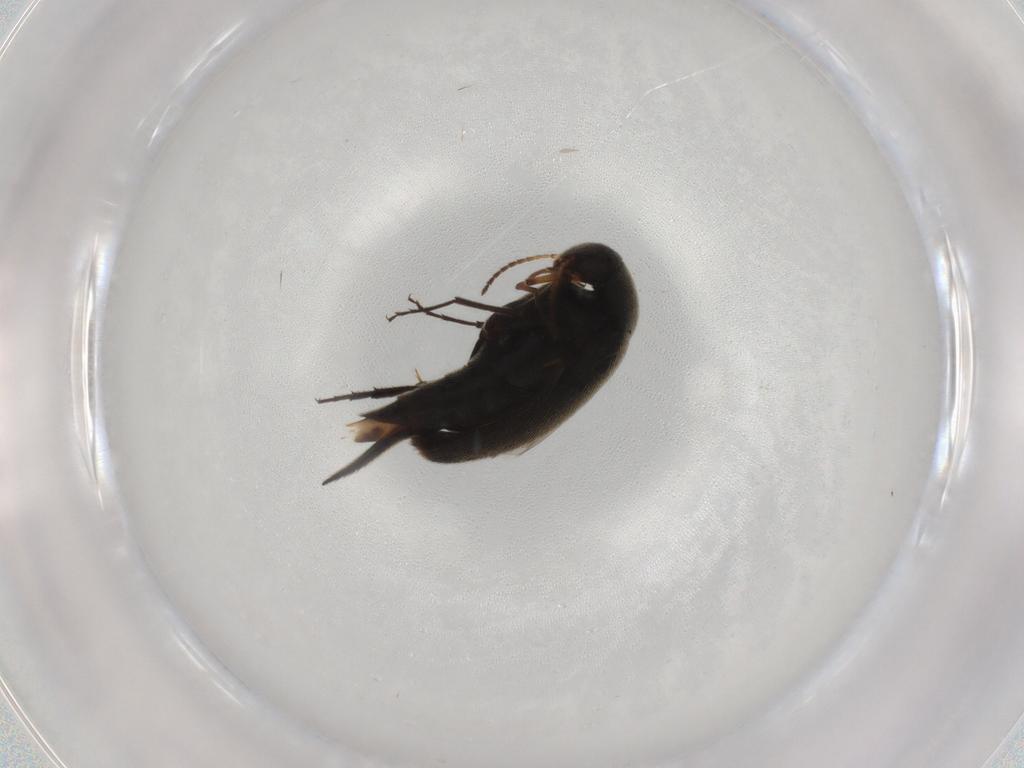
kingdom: Animalia
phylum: Arthropoda
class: Insecta
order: Coleoptera
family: Mordellidae
